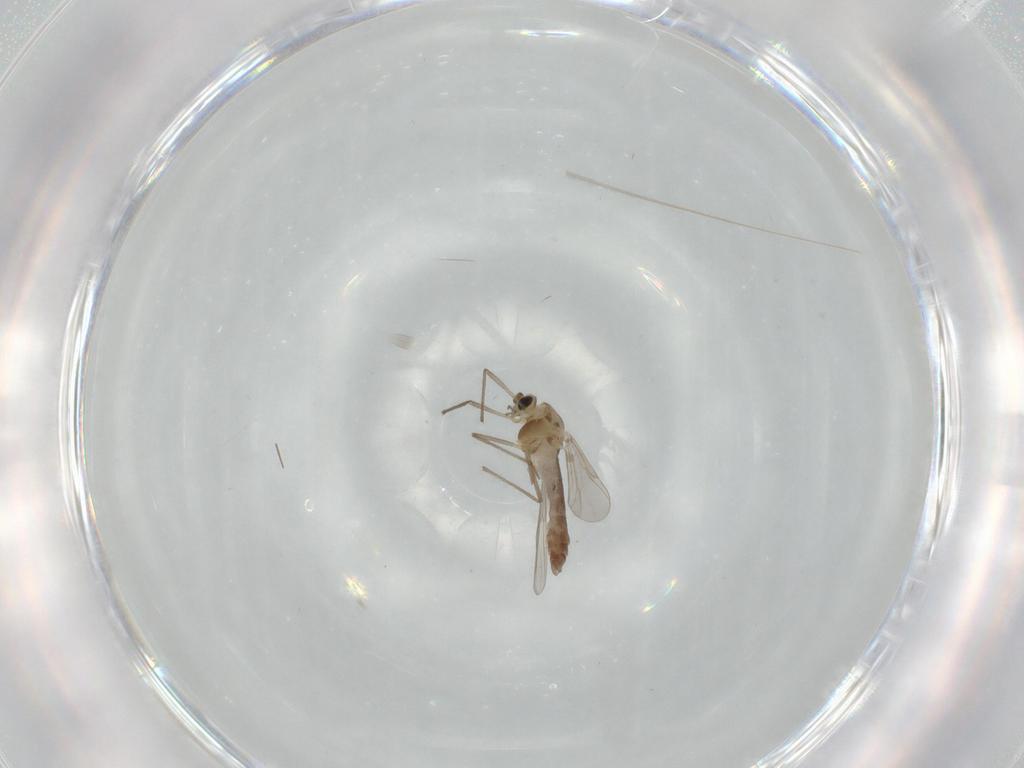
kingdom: Animalia
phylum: Arthropoda
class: Insecta
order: Diptera
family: Chironomidae
